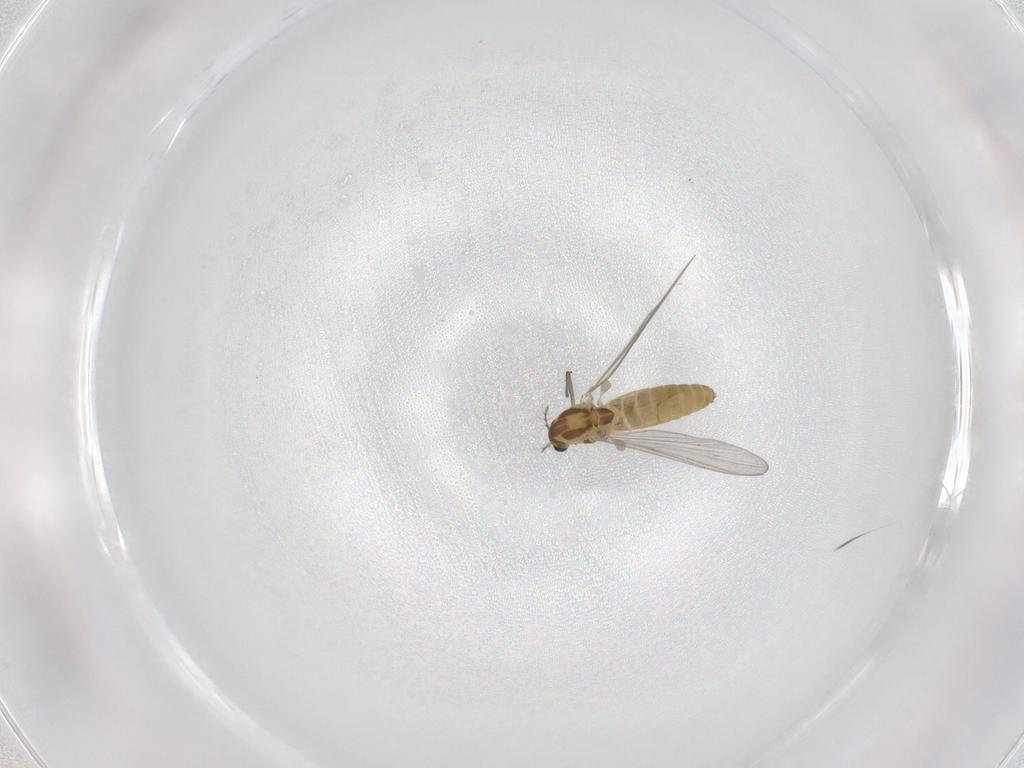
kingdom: Animalia
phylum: Arthropoda
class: Insecta
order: Diptera
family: Chironomidae
